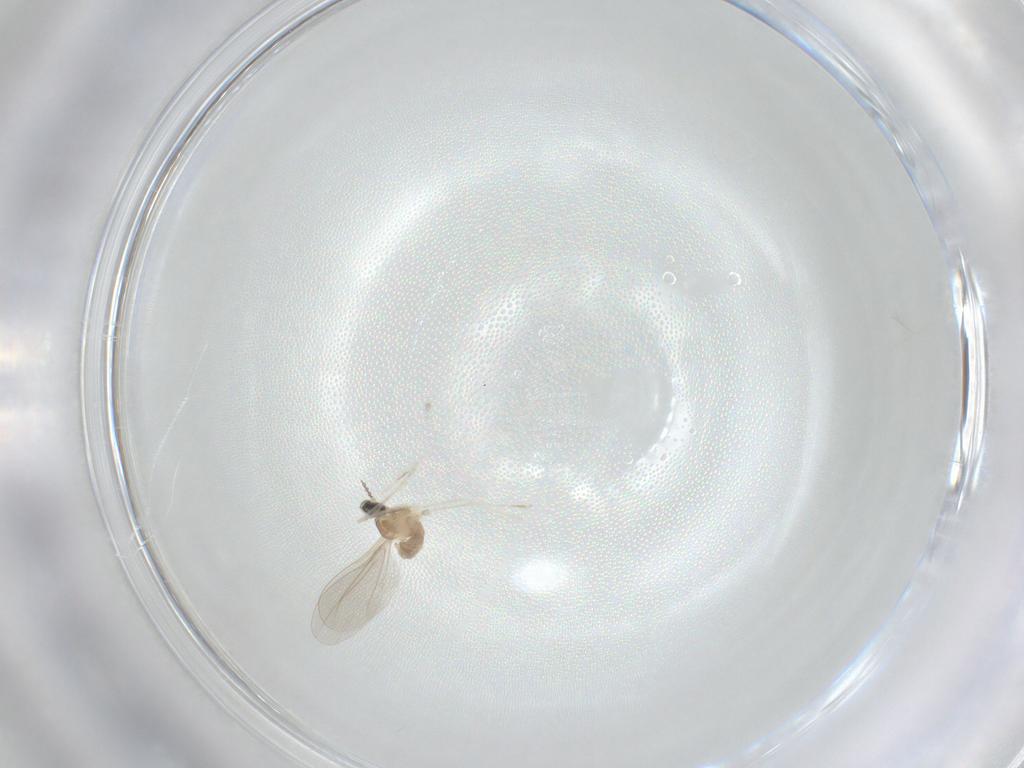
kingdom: Animalia
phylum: Arthropoda
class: Insecta
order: Diptera
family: Cecidomyiidae
